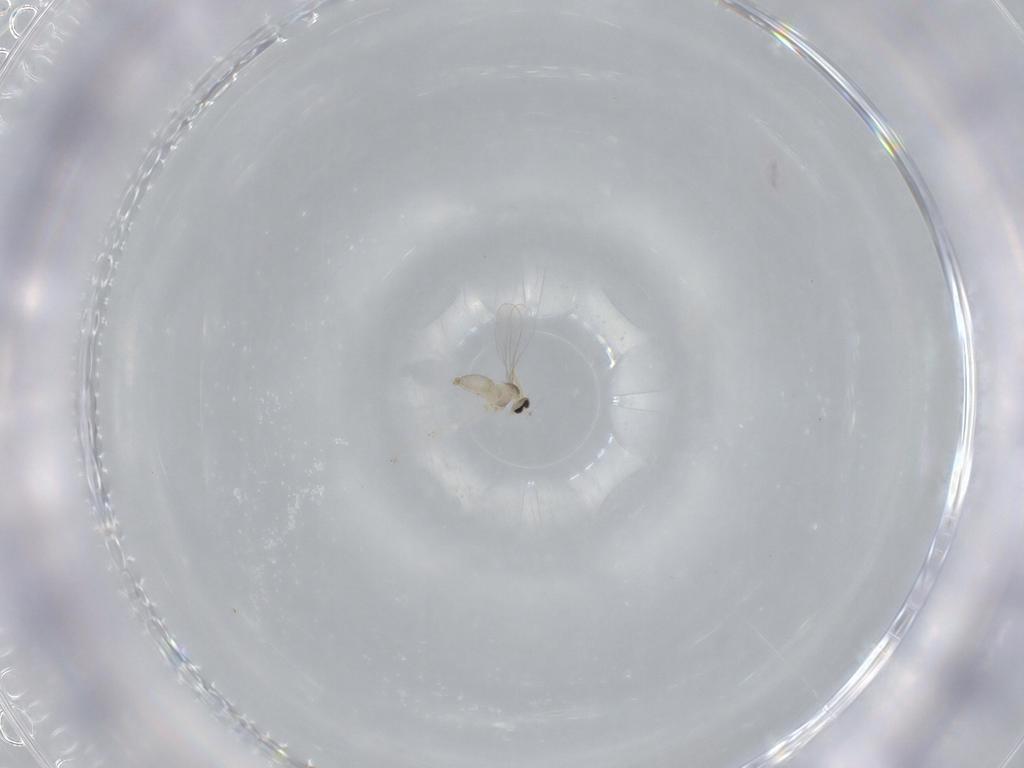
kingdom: Animalia
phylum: Arthropoda
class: Insecta
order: Diptera
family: Cecidomyiidae
